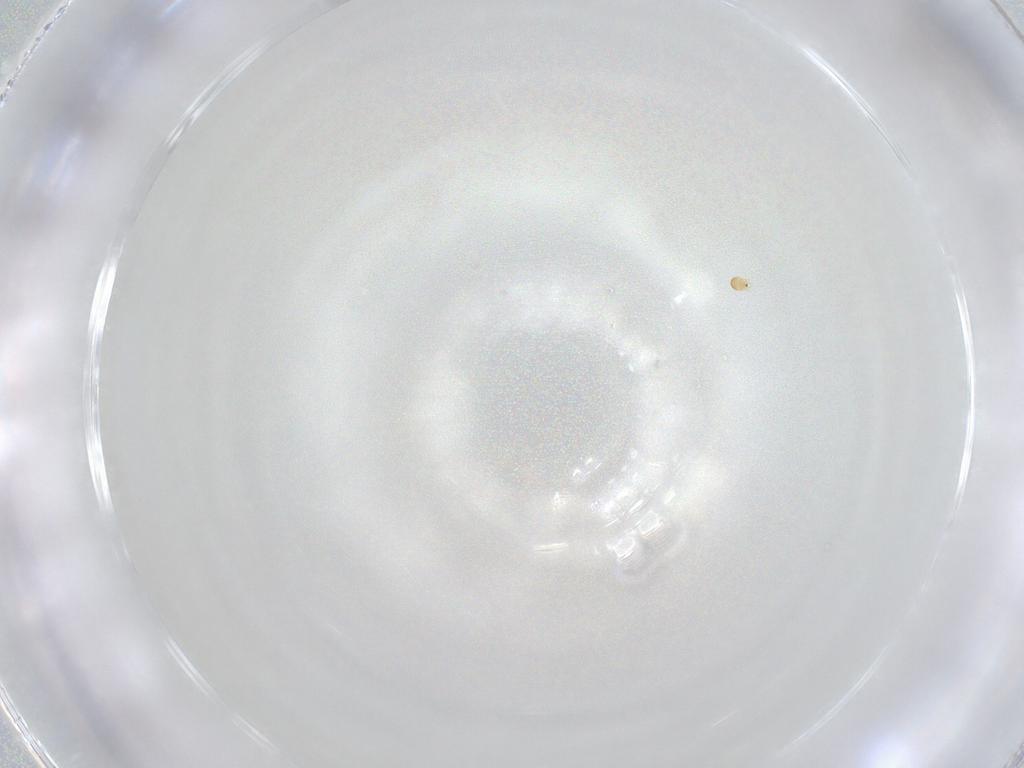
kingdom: Animalia
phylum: Arthropoda
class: Arachnida
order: Sarcoptiformes
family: Humerobatidae
